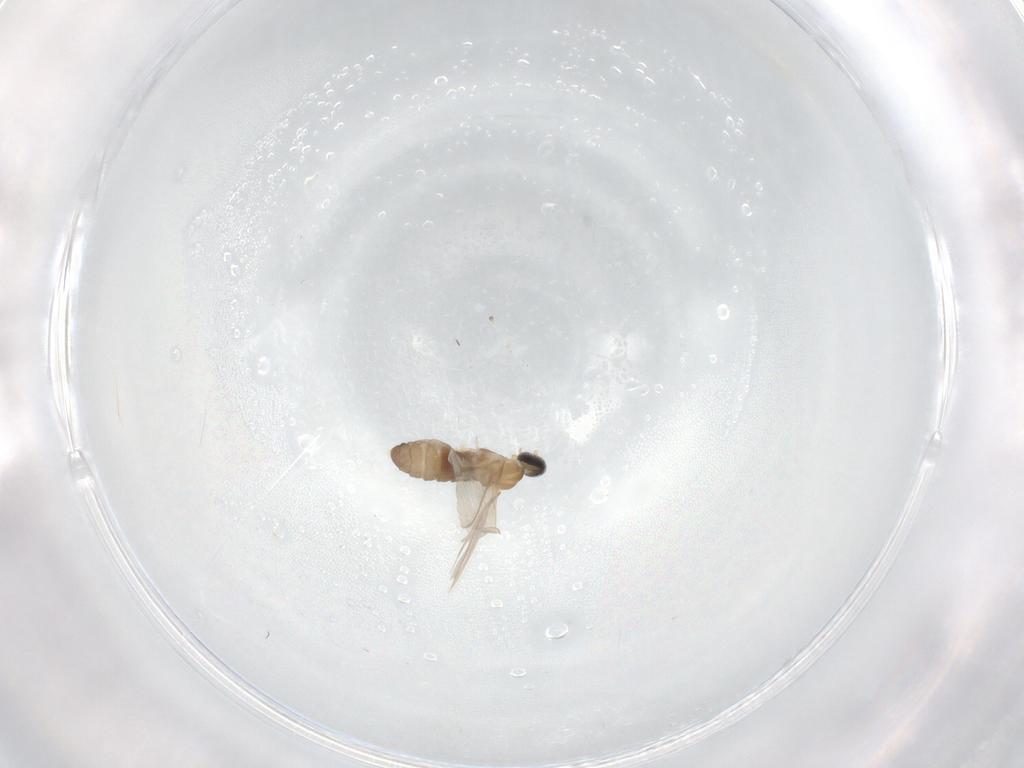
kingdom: Animalia
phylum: Arthropoda
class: Insecta
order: Diptera
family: Cecidomyiidae
